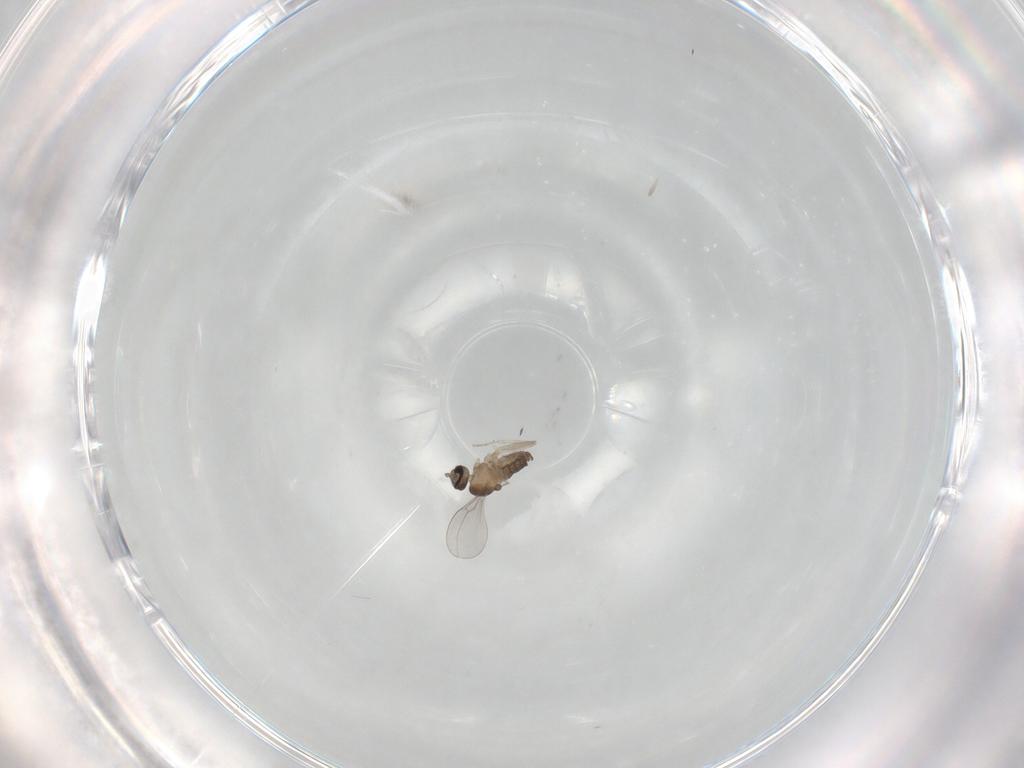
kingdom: Animalia
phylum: Arthropoda
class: Insecta
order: Diptera
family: Cecidomyiidae
